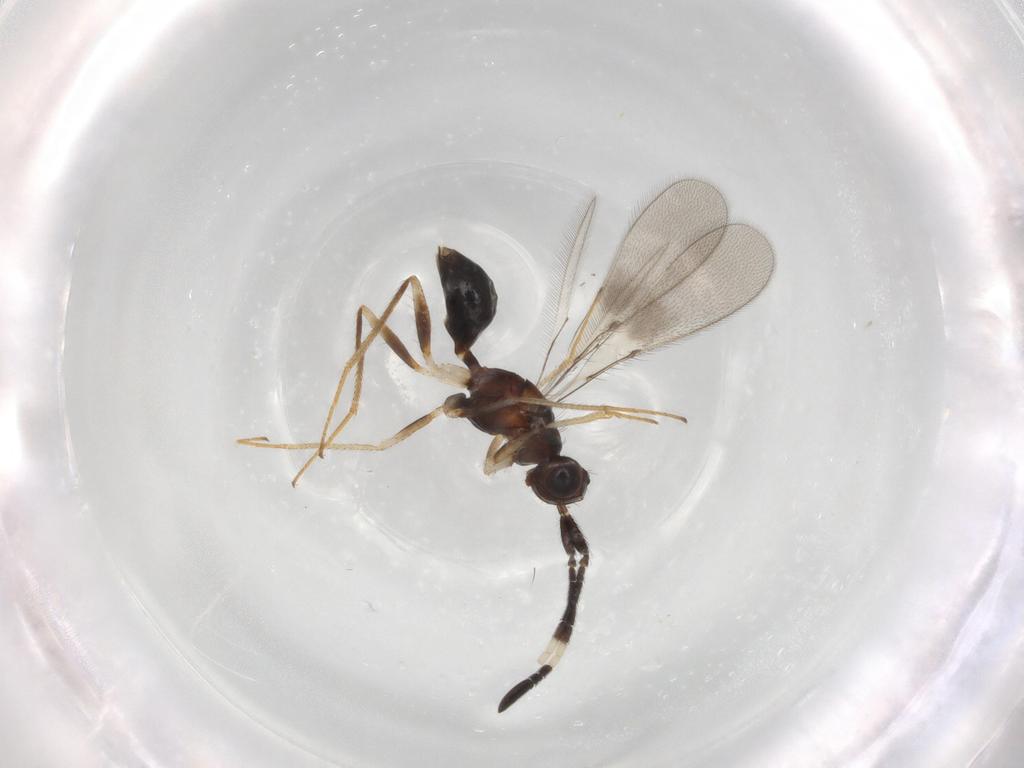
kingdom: Animalia
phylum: Arthropoda
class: Insecta
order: Hymenoptera
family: Mymaridae
